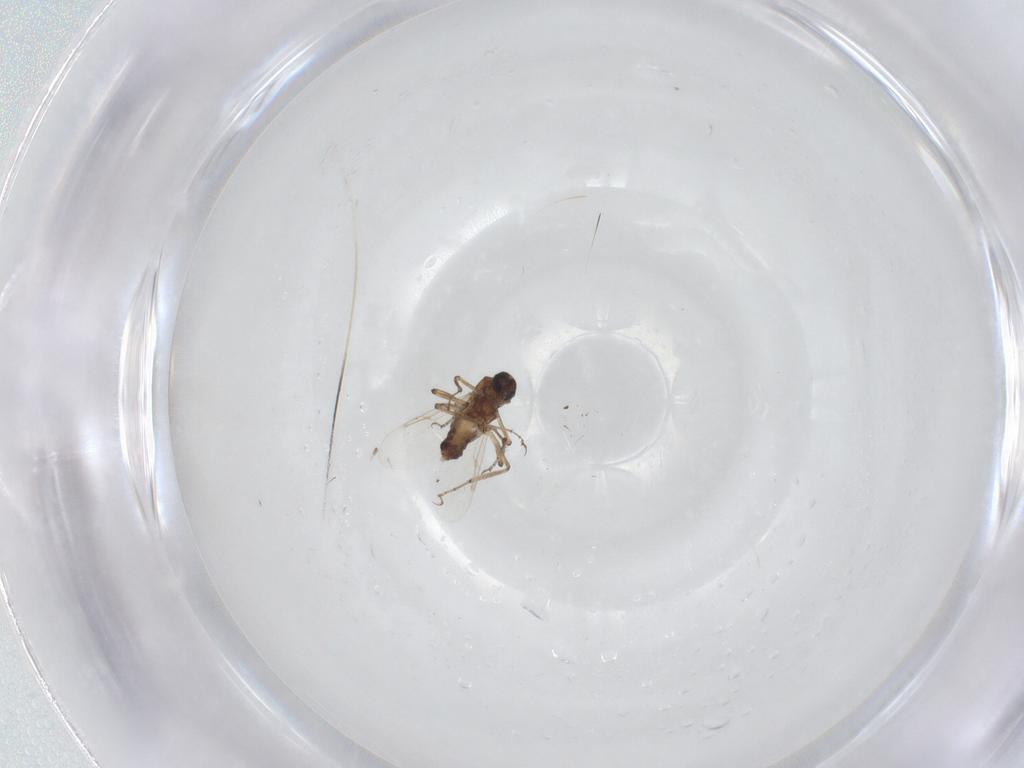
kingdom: Animalia
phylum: Arthropoda
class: Insecta
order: Diptera
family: Ceratopogonidae
